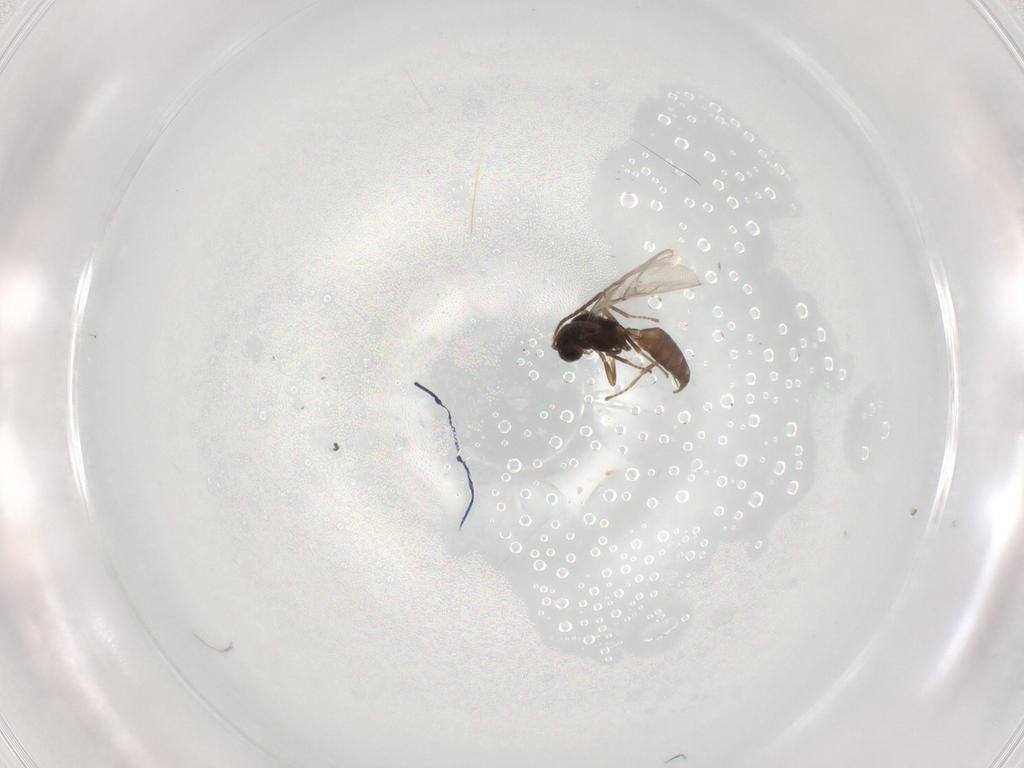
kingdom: Animalia
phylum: Arthropoda
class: Insecta
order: Hymenoptera
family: Braconidae
